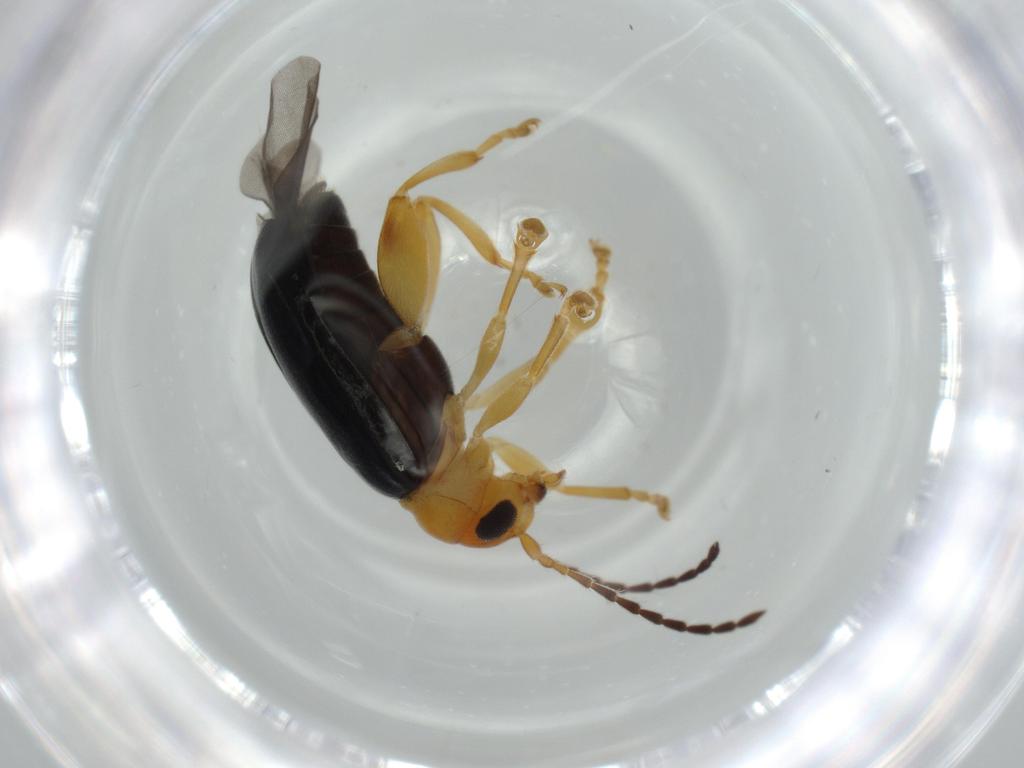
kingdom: Animalia
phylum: Arthropoda
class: Insecta
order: Coleoptera
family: Chrysomelidae
